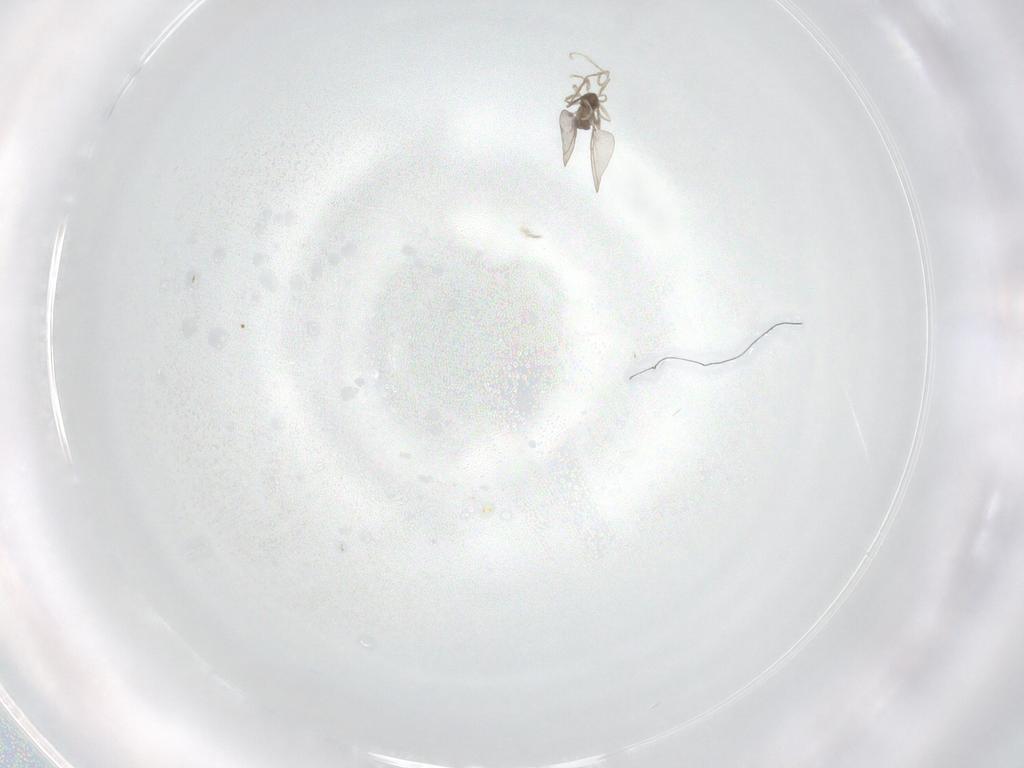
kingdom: Animalia
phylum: Arthropoda
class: Insecta
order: Diptera
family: Cecidomyiidae
